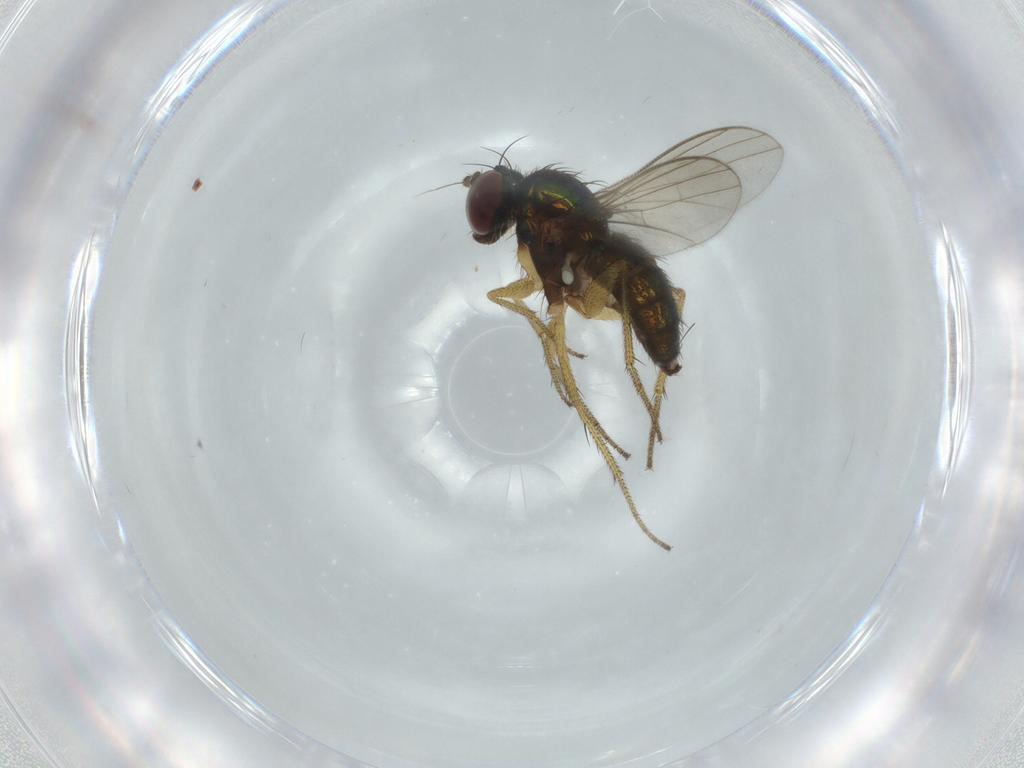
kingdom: Animalia
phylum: Arthropoda
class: Insecta
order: Diptera
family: Dolichopodidae
